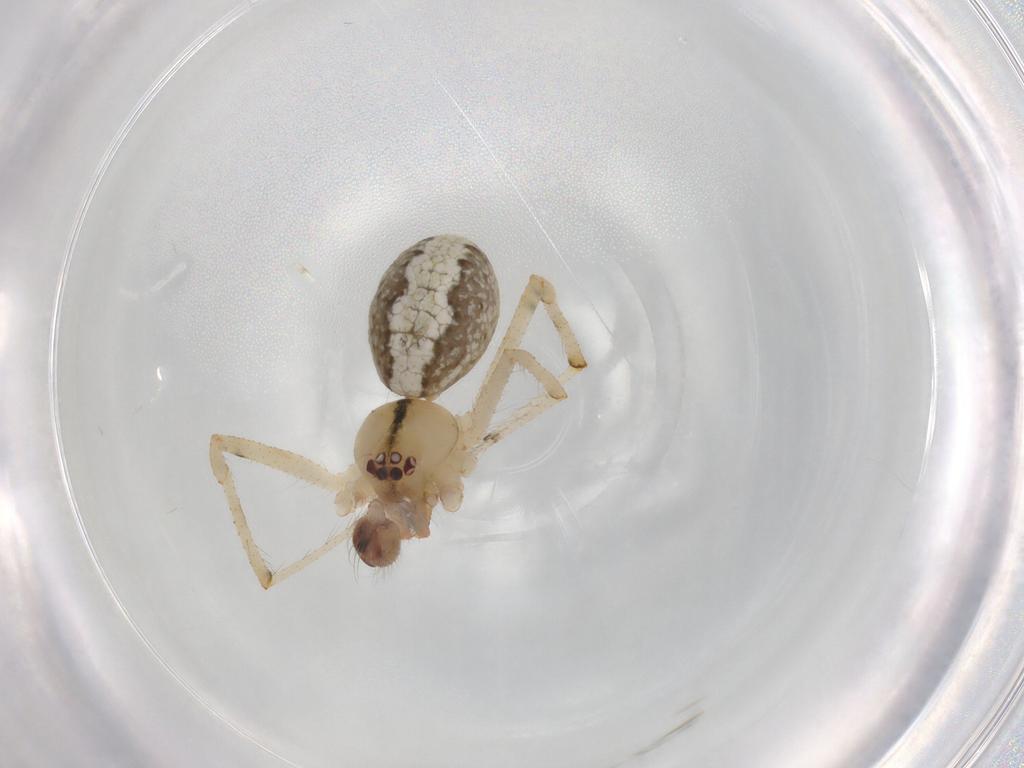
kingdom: Animalia
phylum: Arthropoda
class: Arachnida
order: Araneae
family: Theridiidae
